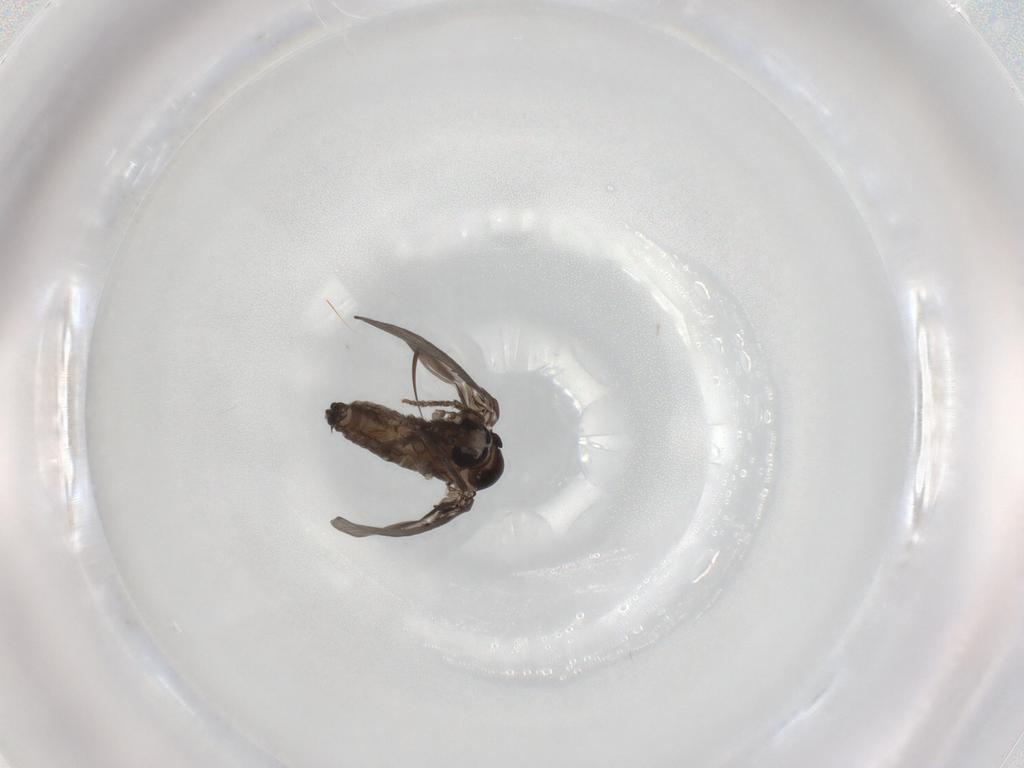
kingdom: Animalia
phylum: Arthropoda
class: Insecta
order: Diptera
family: Psychodidae
